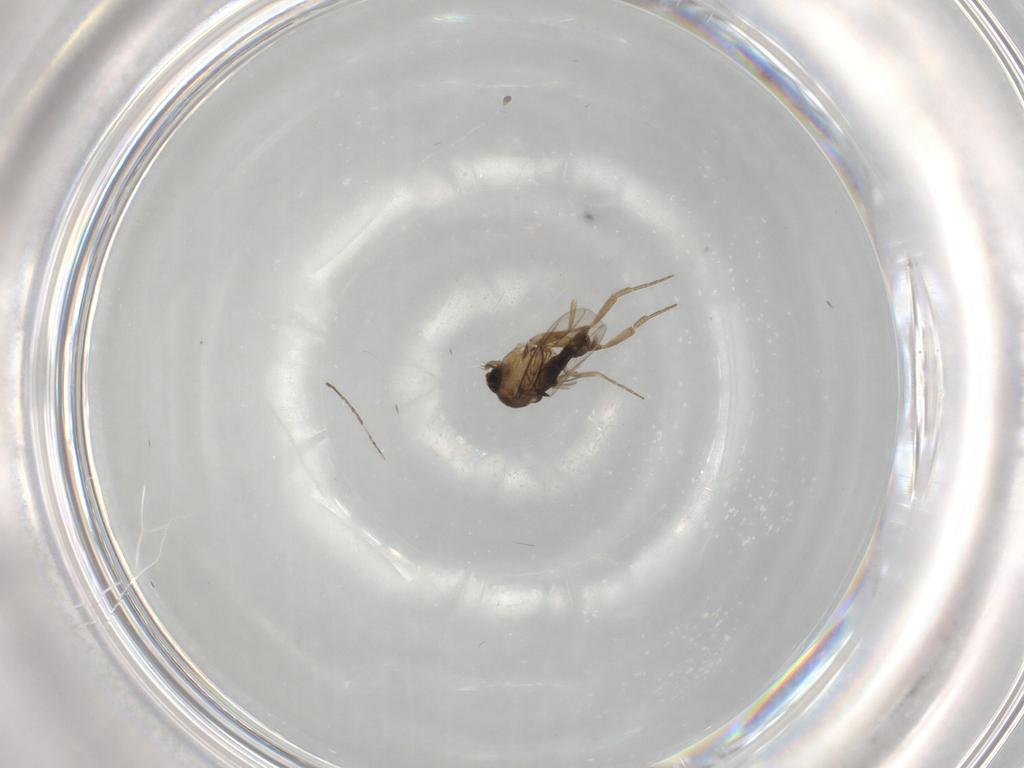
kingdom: Animalia
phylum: Arthropoda
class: Insecta
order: Diptera
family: Phoridae
